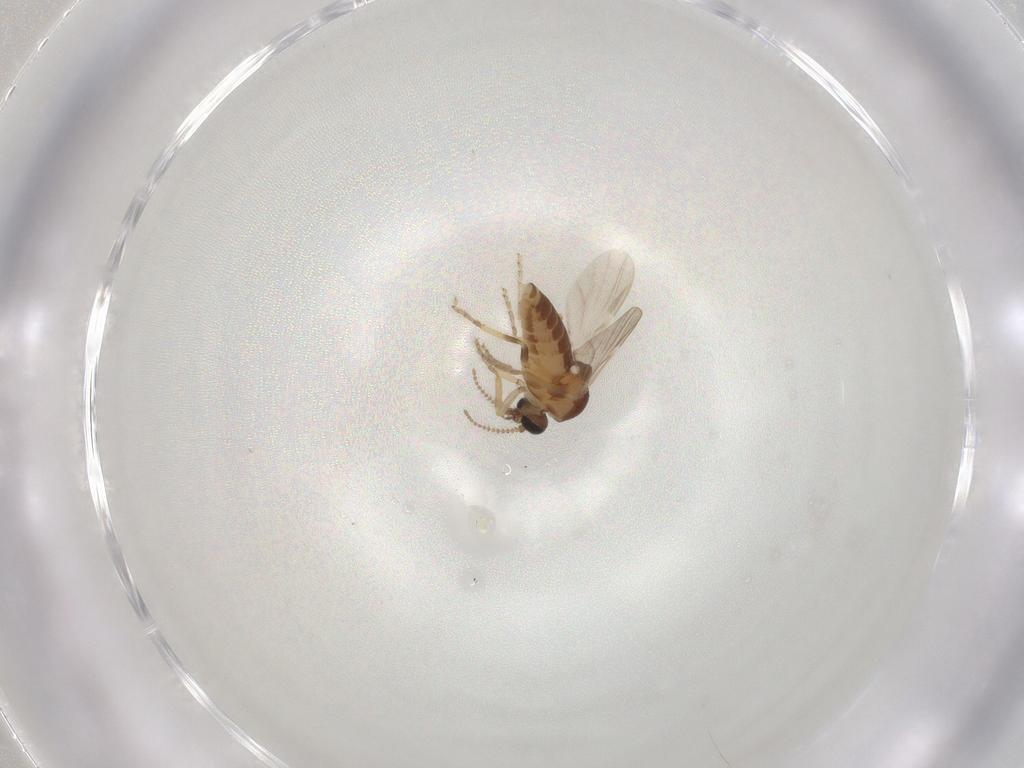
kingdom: Animalia
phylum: Arthropoda
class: Insecta
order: Diptera
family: Ceratopogonidae
